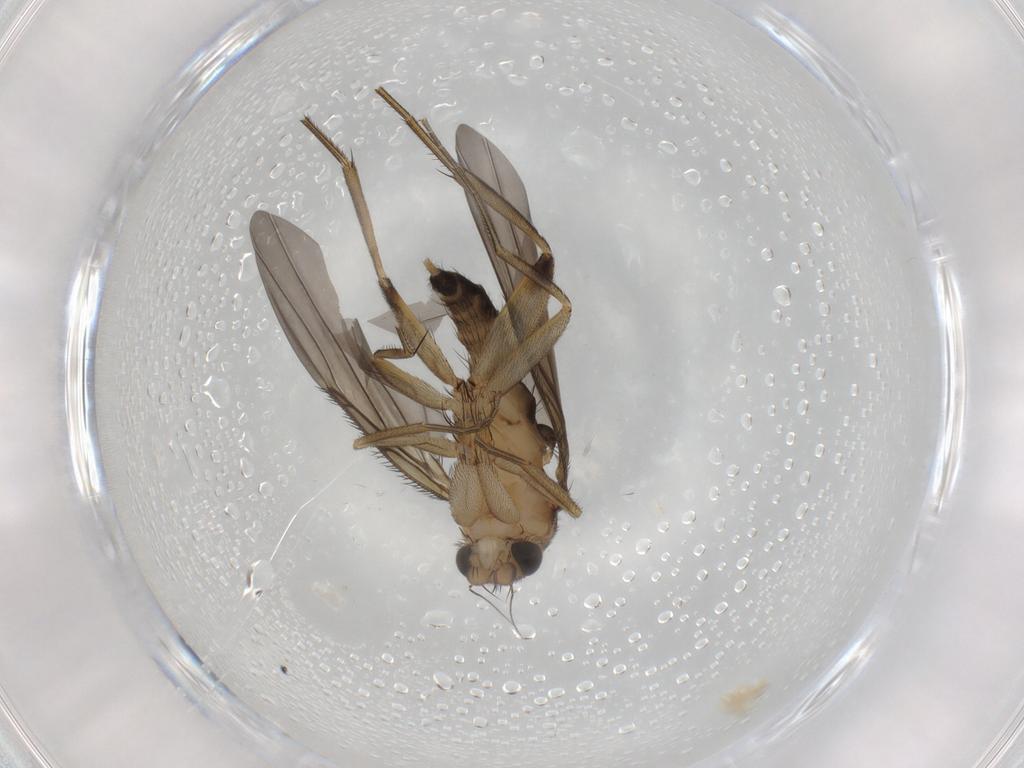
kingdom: Animalia
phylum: Arthropoda
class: Insecta
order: Diptera
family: Phoridae
